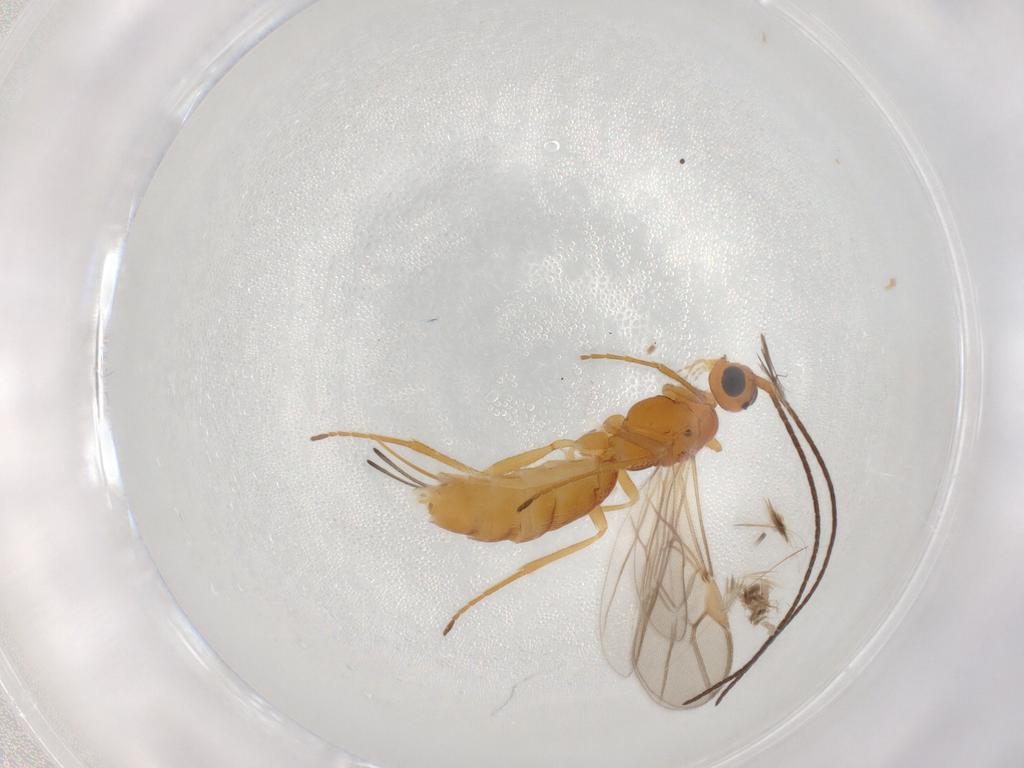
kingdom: Animalia
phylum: Arthropoda
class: Insecta
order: Hymenoptera
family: Braconidae
